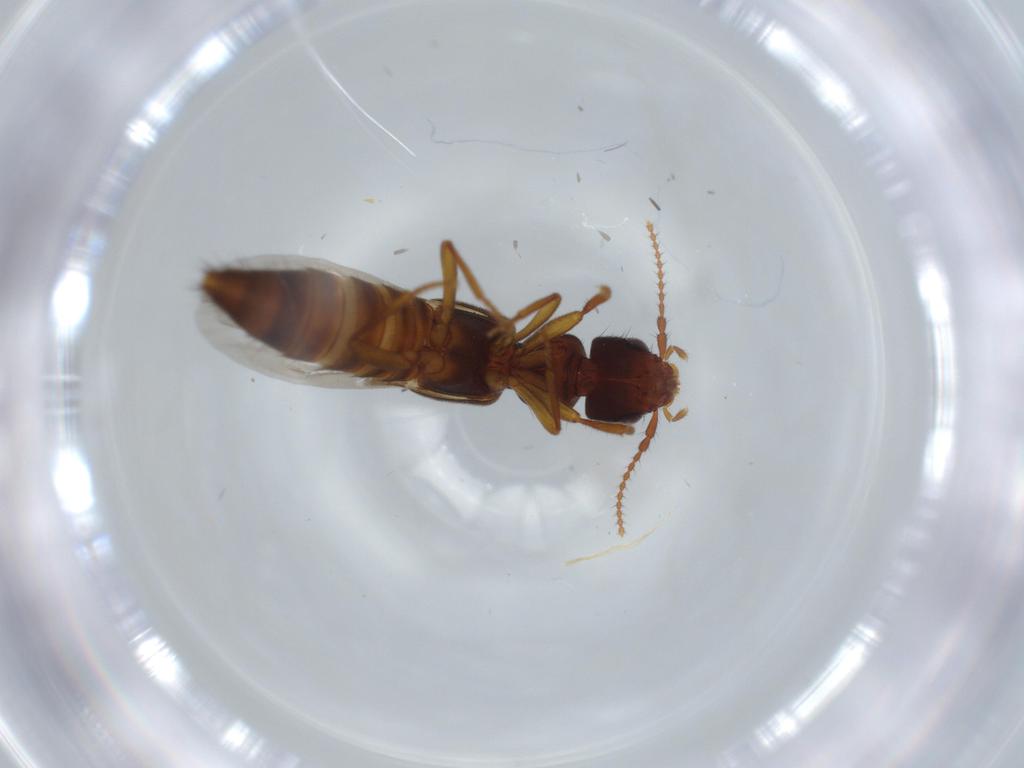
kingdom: Animalia
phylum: Arthropoda
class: Insecta
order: Coleoptera
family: Staphylinidae
